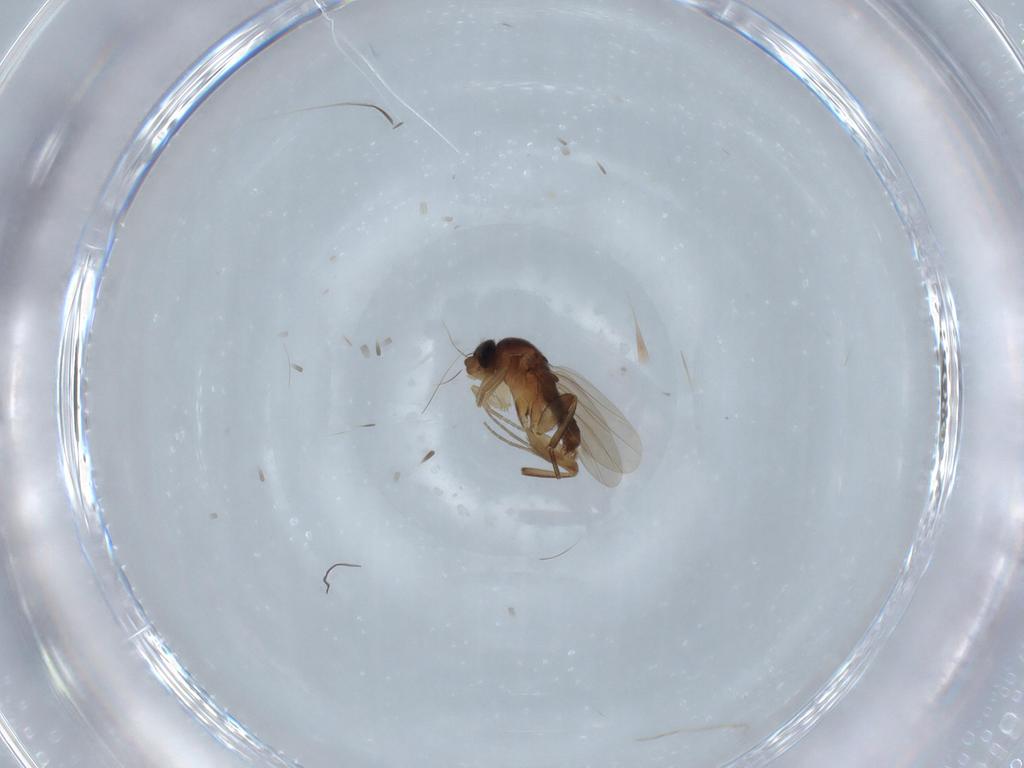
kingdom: Animalia
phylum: Arthropoda
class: Insecta
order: Diptera
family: Phoridae
